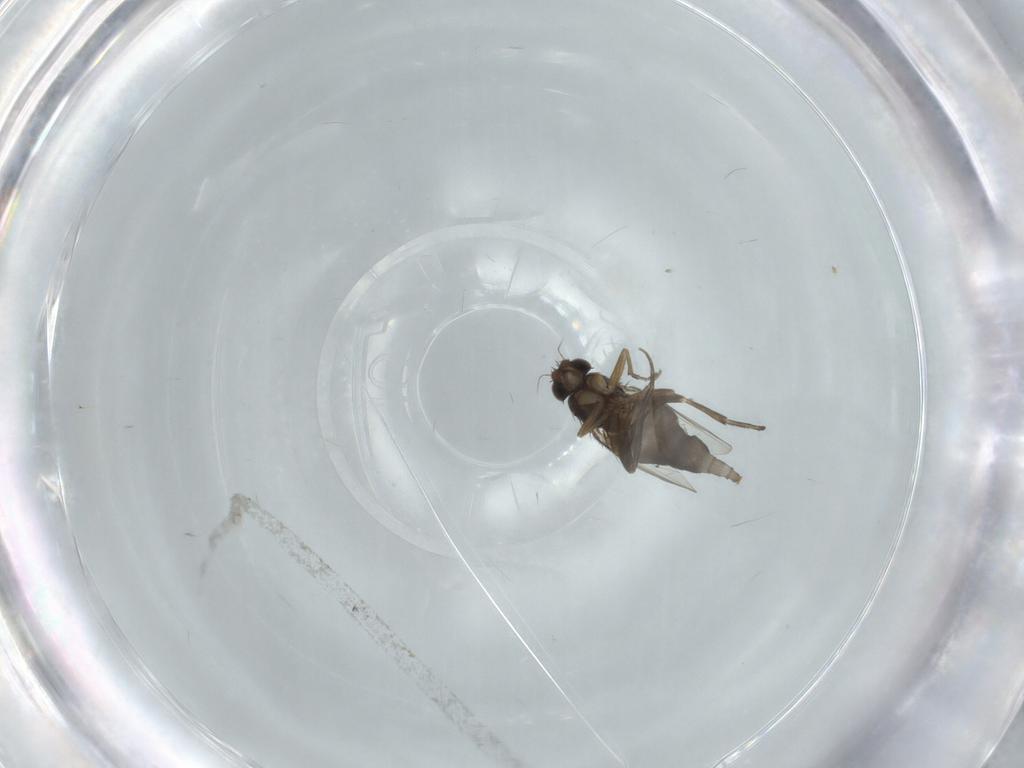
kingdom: Animalia
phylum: Arthropoda
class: Insecta
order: Diptera
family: Phoridae
